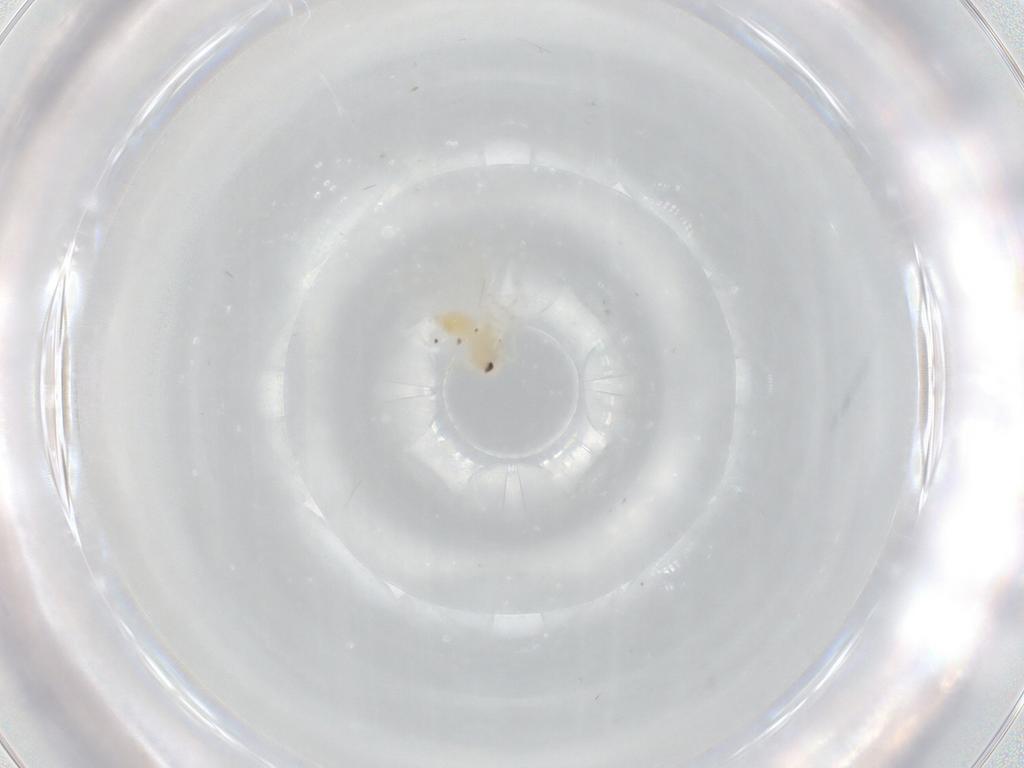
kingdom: Animalia
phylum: Arthropoda
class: Insecta
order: Hemiptera
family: Aleyrodidae
